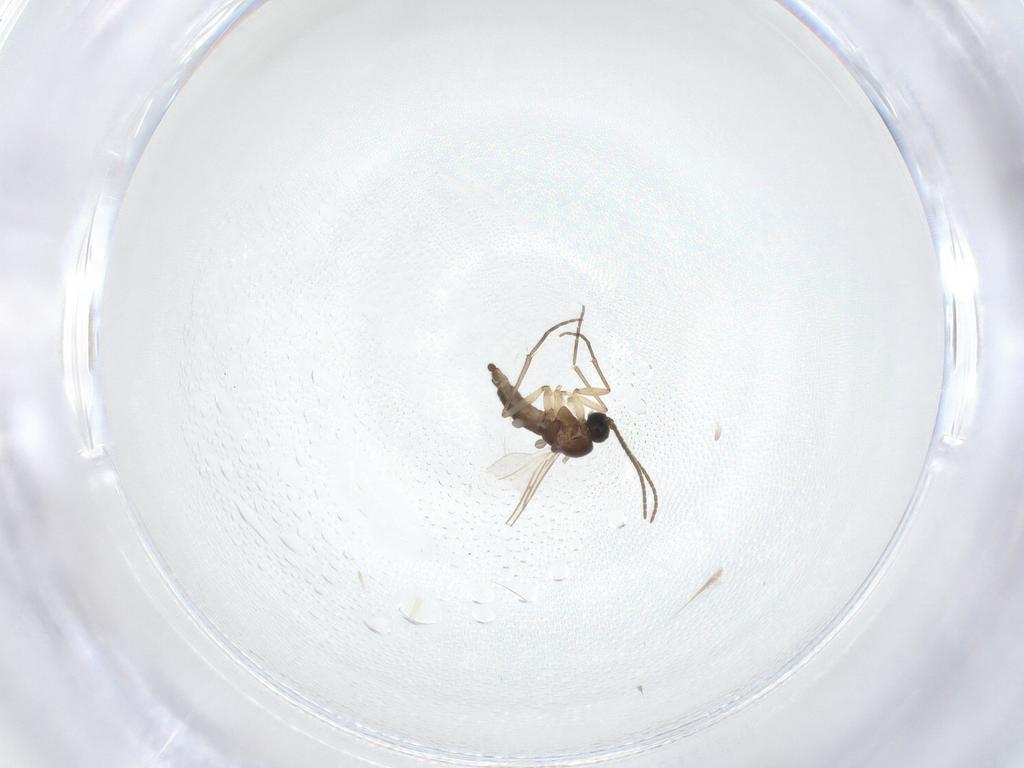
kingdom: Animalia
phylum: Arthropoda
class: Insecta
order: Diptera
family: Sciaridae
